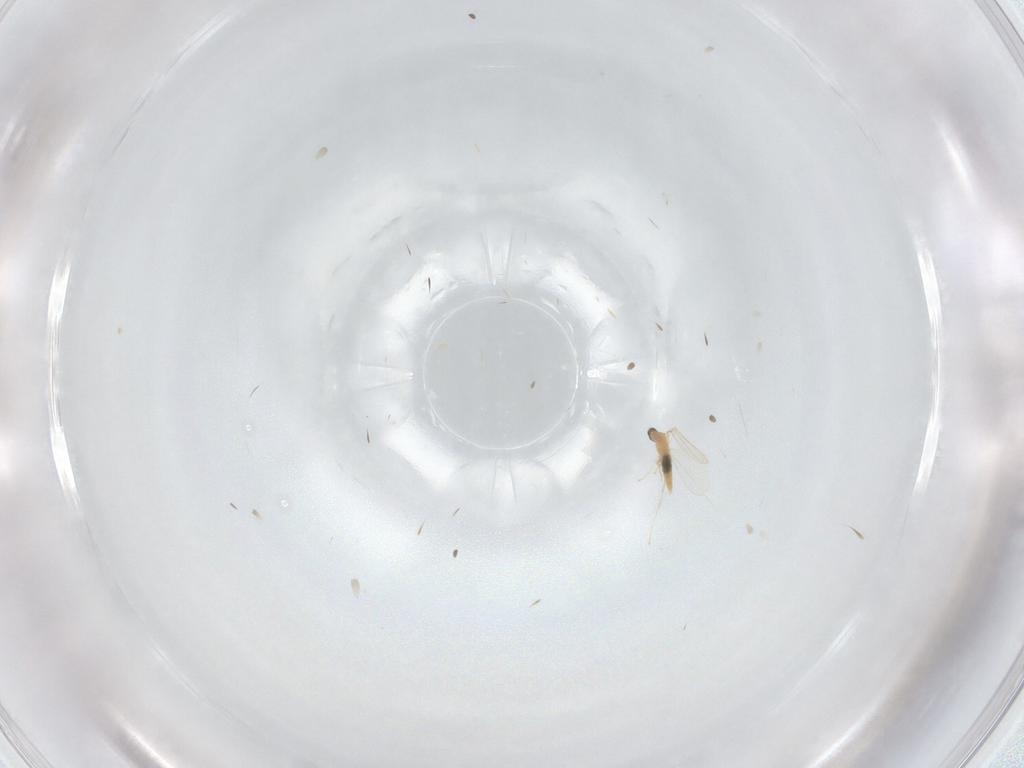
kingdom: Animalia
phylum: Arthropoda
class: Insecta
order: Diptera
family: Cecidomyiidae
